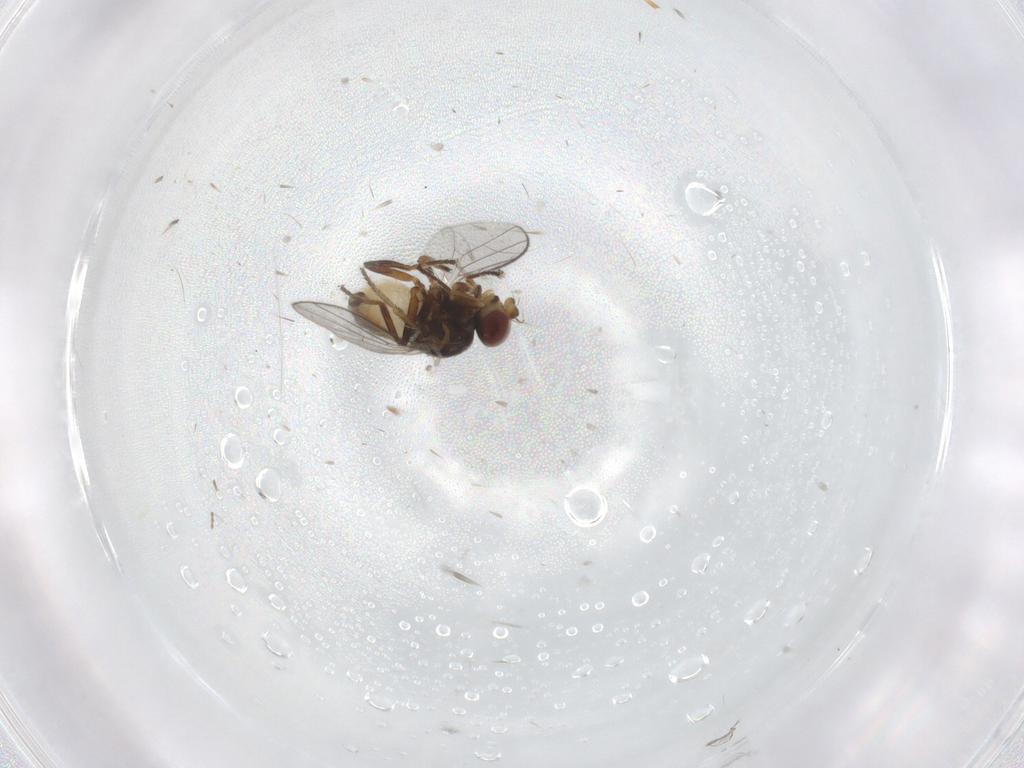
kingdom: Animalia
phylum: Arthropoda
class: Insecta
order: Diptera
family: Chloropidae
